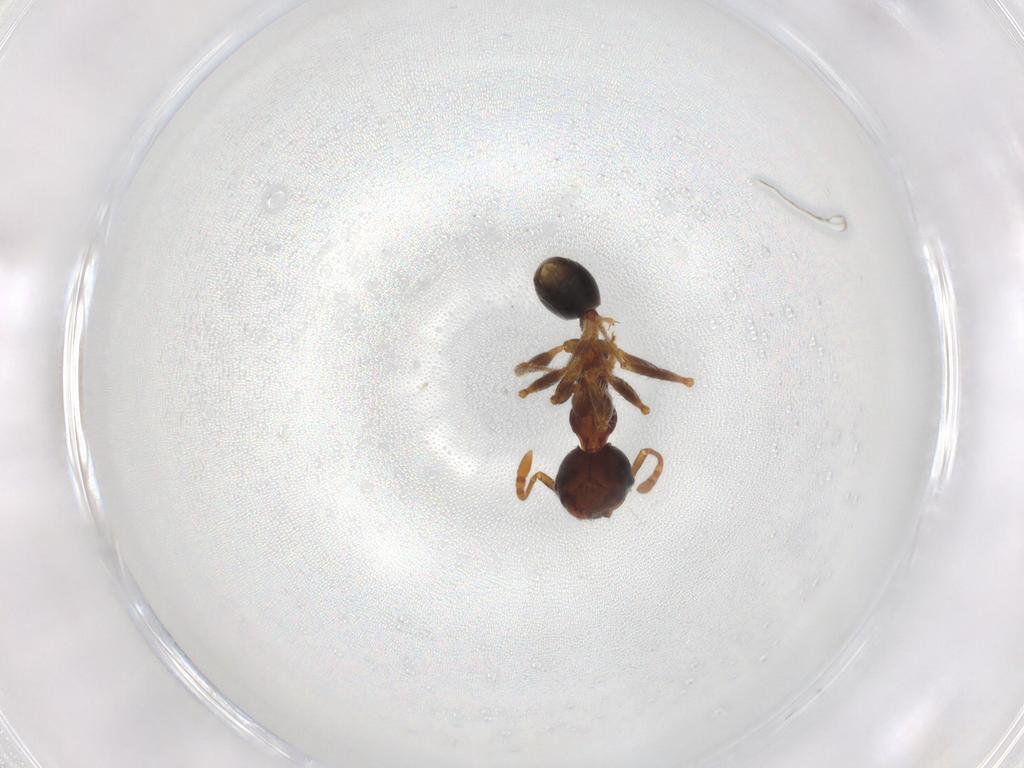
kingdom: Animalia
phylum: Arthropoda
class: Insecta
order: Hymenoptera
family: Formicidae
